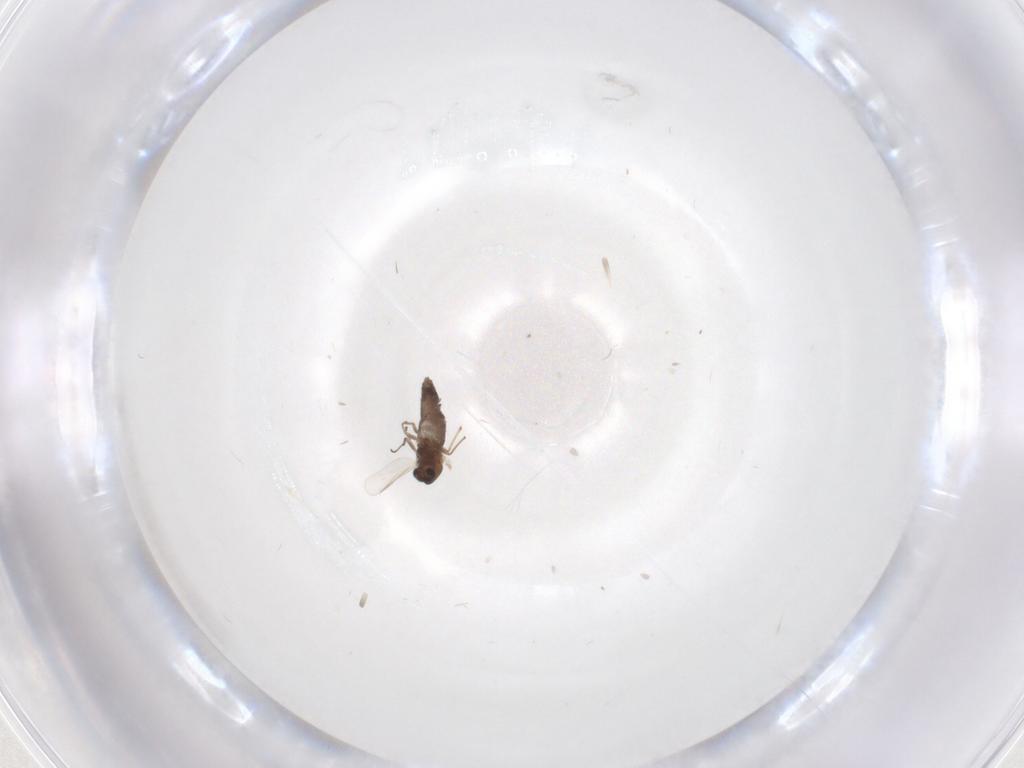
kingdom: Animalia
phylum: Arthropoda
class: Insecta
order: Diptera
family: Chironomidae
